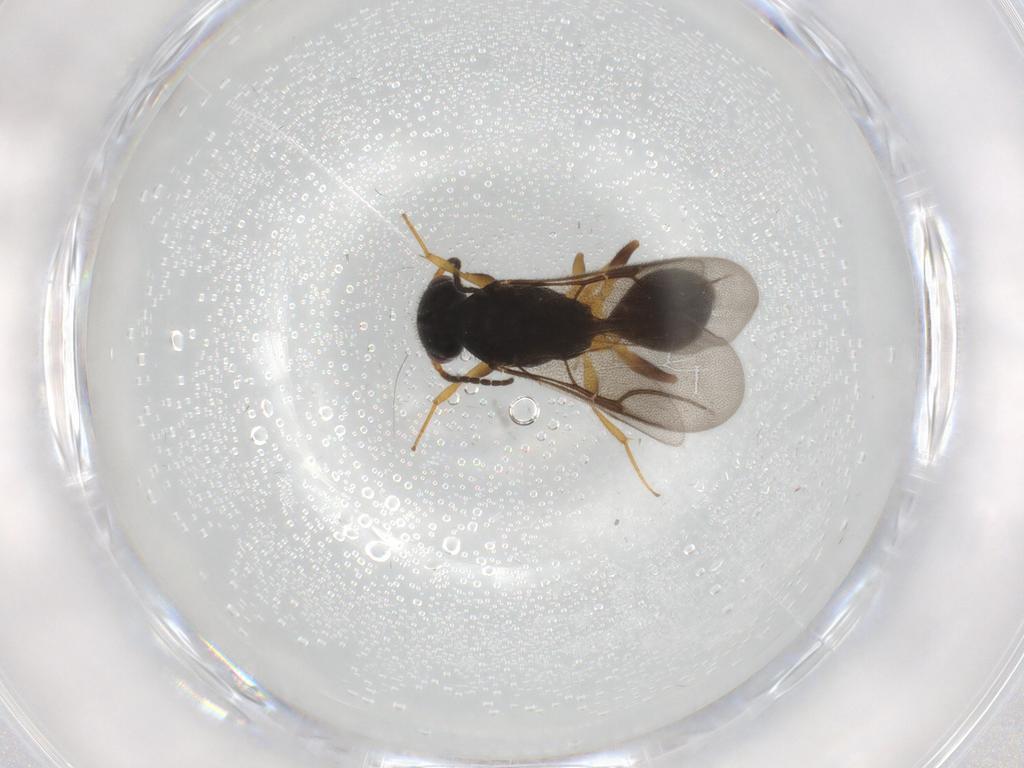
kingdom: Animalia
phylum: Arthropoda
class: Insecta
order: Hymenoptera
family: Bethylidae
